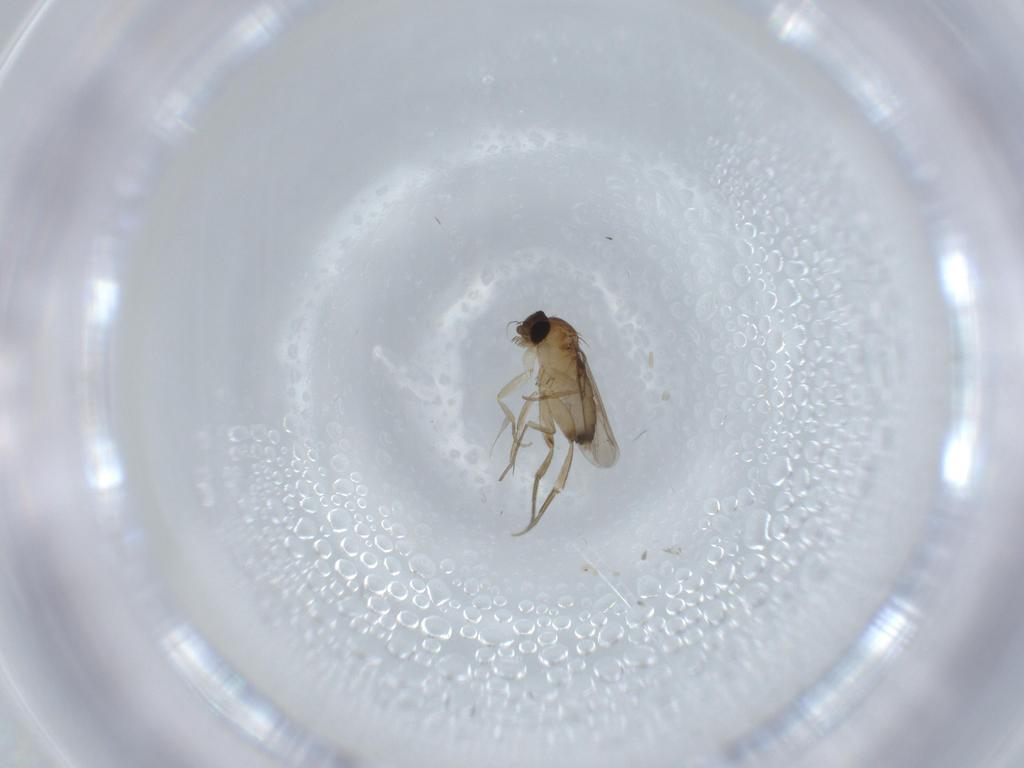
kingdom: Animalia
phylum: Arthropoda
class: Insecta
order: Diptera
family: Phoridae
